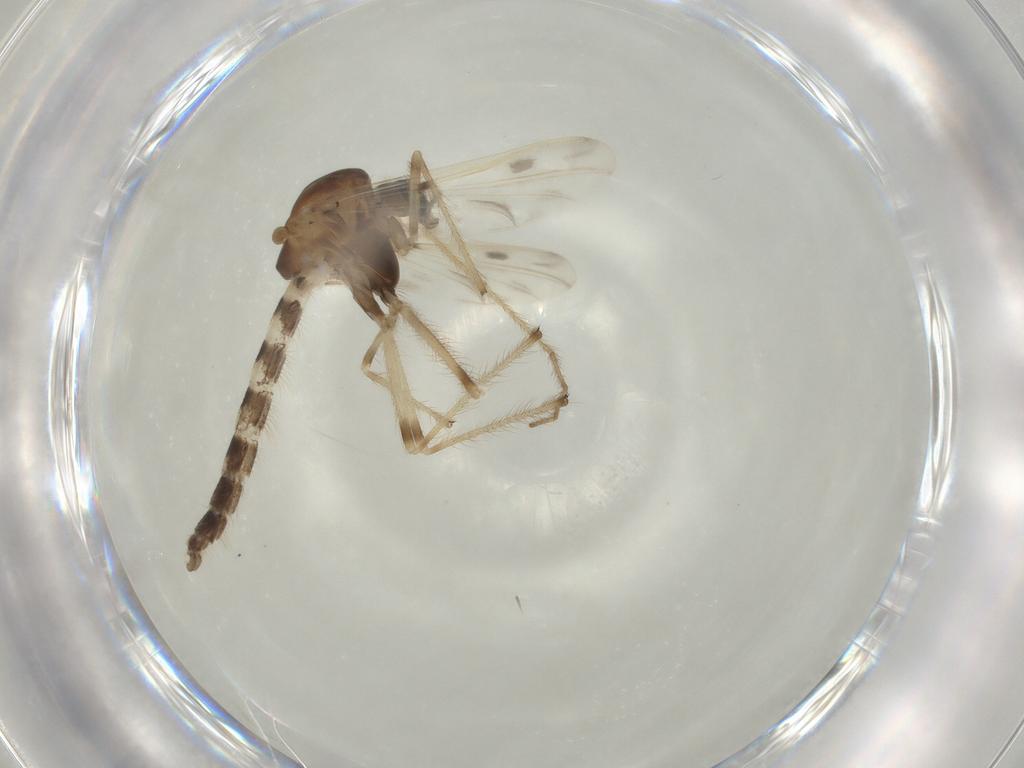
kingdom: Animalia
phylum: Arthropoda
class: Insecta
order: Diptera
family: Chironomidae
